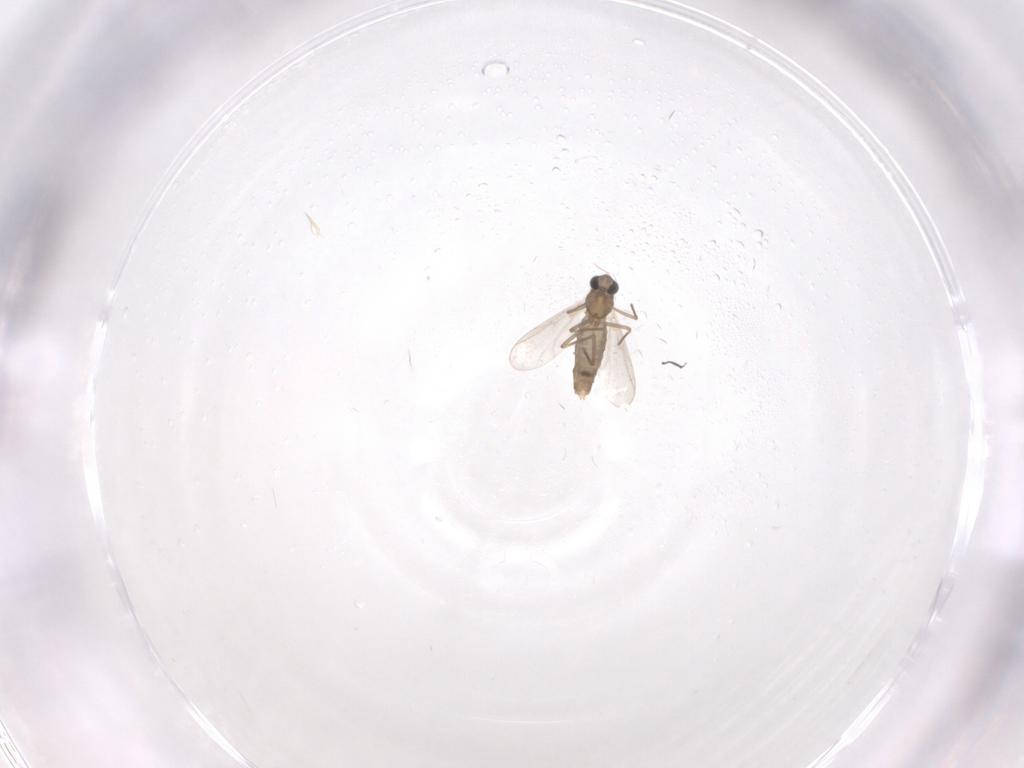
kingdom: Animalia
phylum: Arthropoda
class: Insecta
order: Diptera
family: Chironomidae
